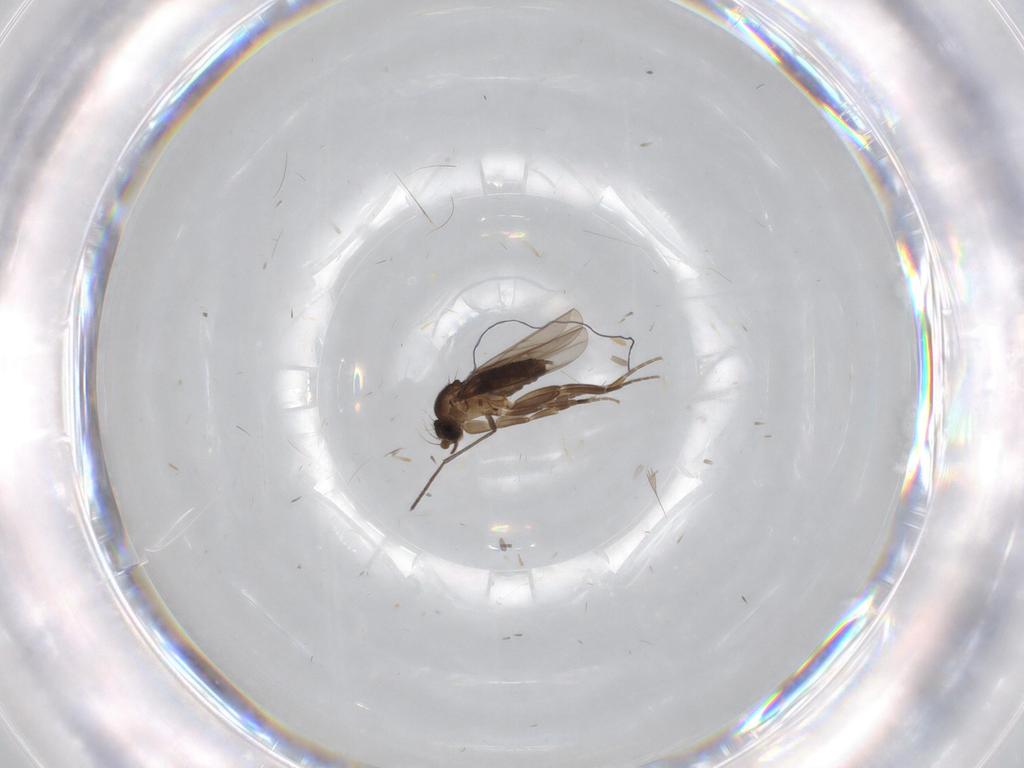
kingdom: Animalia
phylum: Arthropoda
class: Insecta
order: Diptera
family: Phoridae
